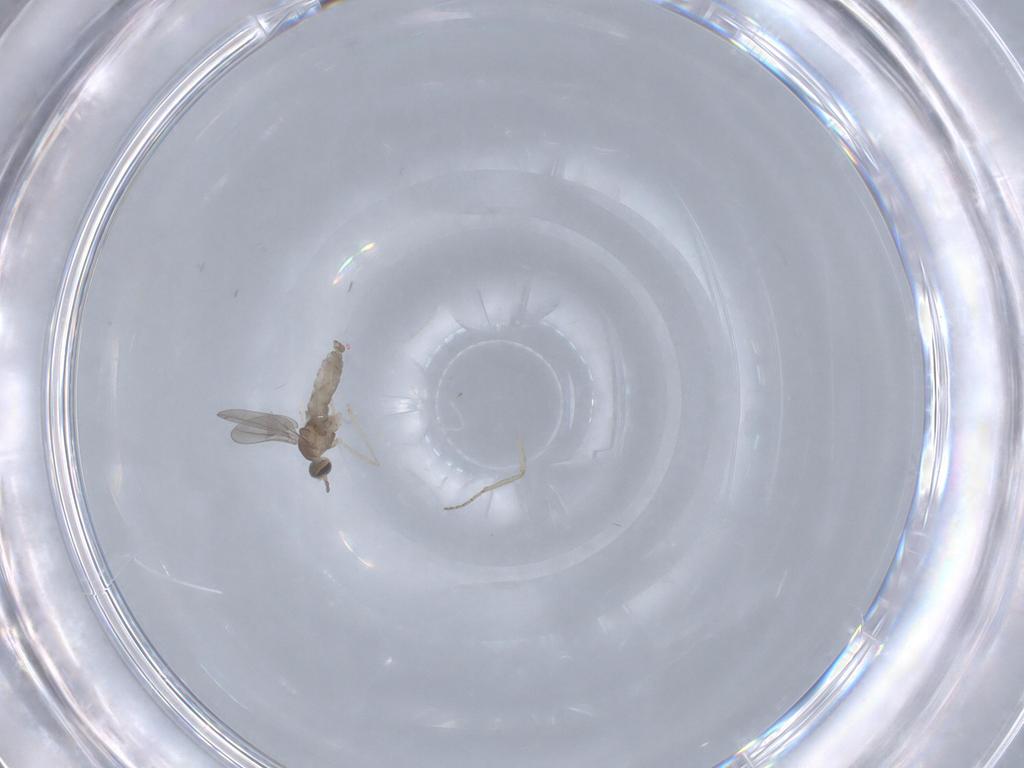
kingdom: Animalia
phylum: Arthropoda
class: Insecta
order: Diptera
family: Ceratopogonidae
